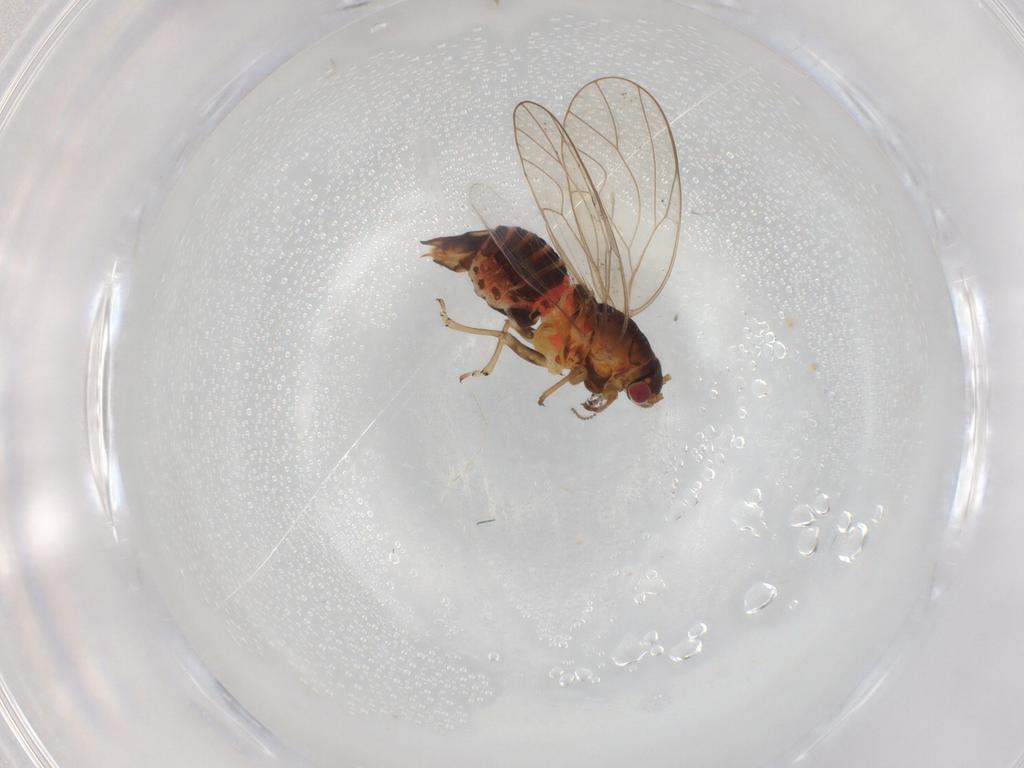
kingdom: Animalia
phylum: Arthropoda
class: Insecta
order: Hemiptera
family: Psyllidae
